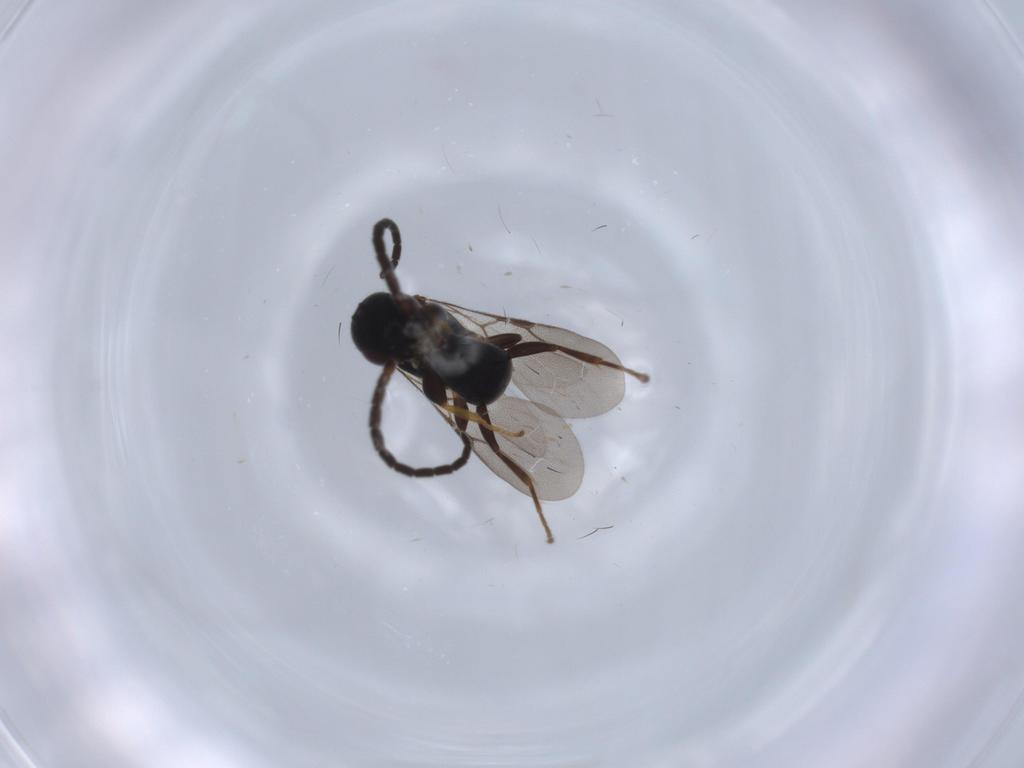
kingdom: Animalia
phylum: Arthropoda
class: Insecta
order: Hymenoptera
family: Bethylidae
